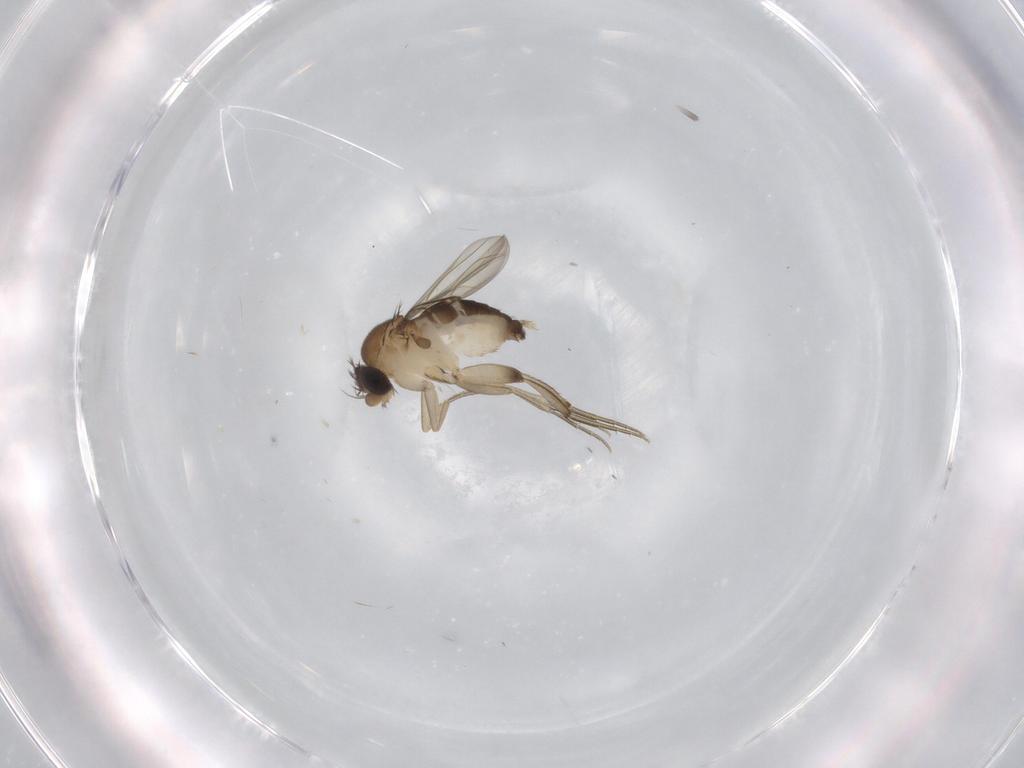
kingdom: Animalia
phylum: Arthropoda
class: Insecta
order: Diptera
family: Phoridae
